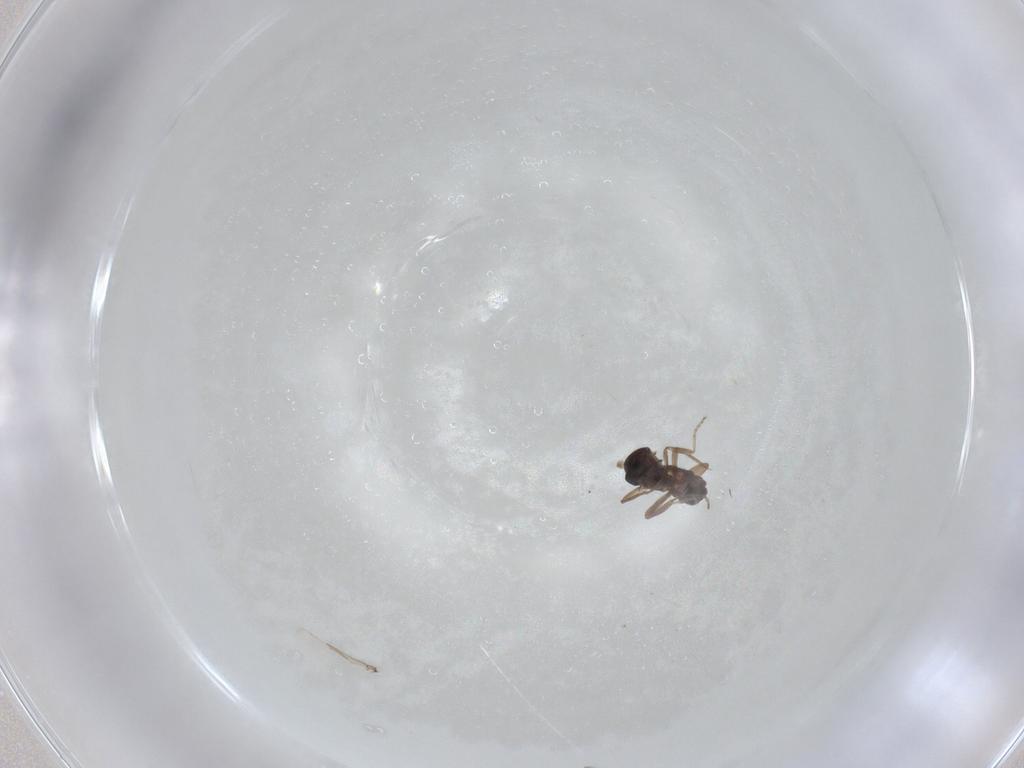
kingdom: Animalia
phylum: Arthropoda
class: Insecta
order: Diptera
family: Ceratopogonidae
